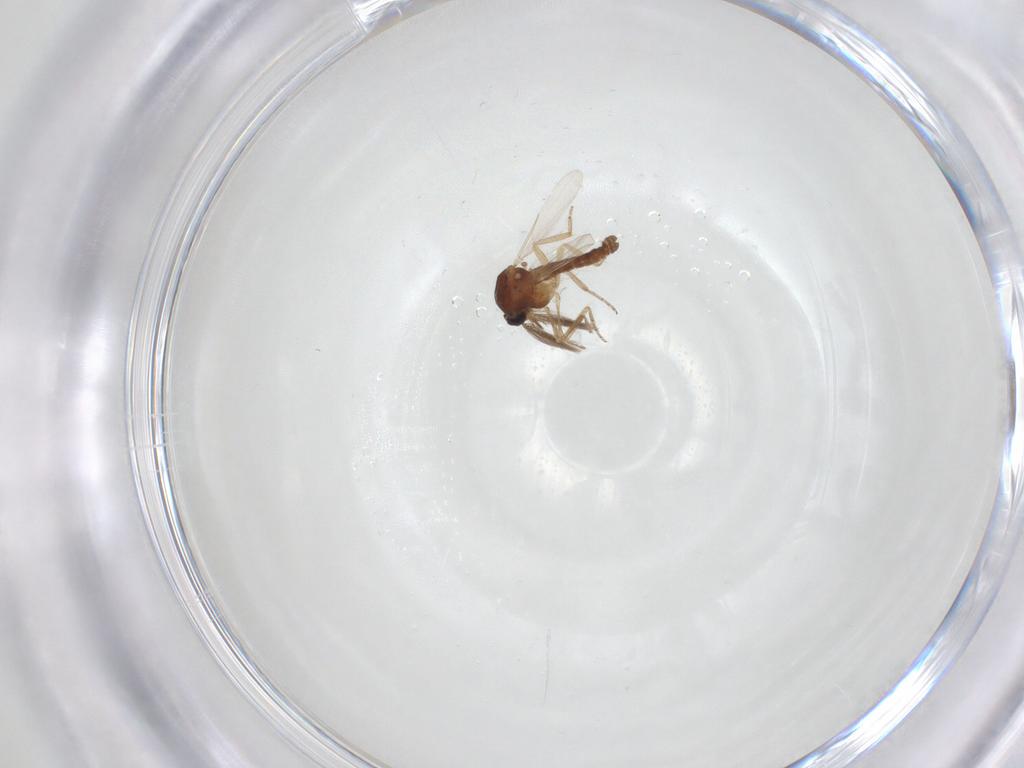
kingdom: Animalia
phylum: Arthropoda
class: Insecta
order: Diptera
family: Ceratopogonidae
